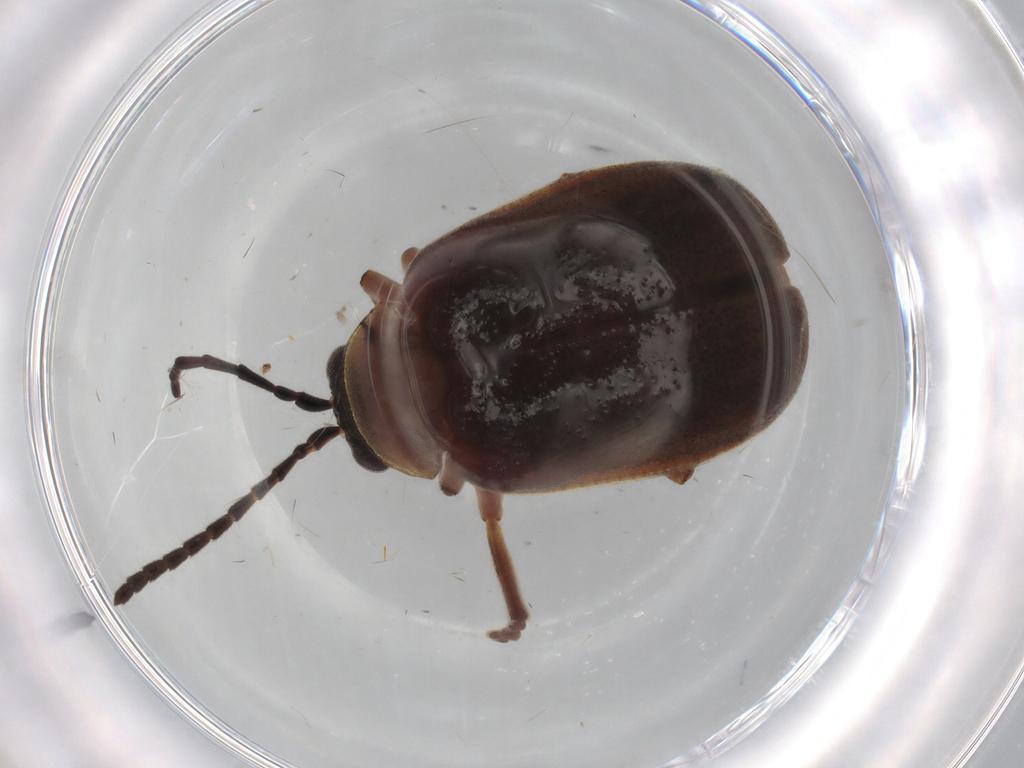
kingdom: Animalia
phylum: Arthropoda
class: Insecta
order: Coleoptera
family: Chrysomelidae
